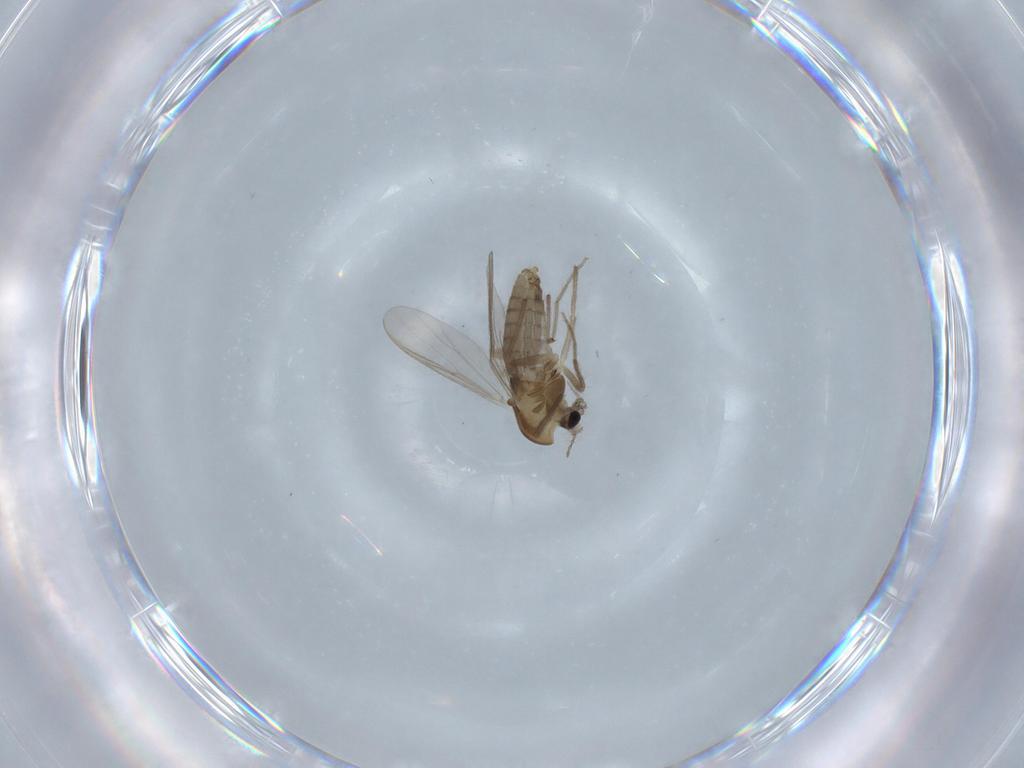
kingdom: Animalia
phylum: Arthropoda
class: Insecta
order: Diptera
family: Chironomidae
